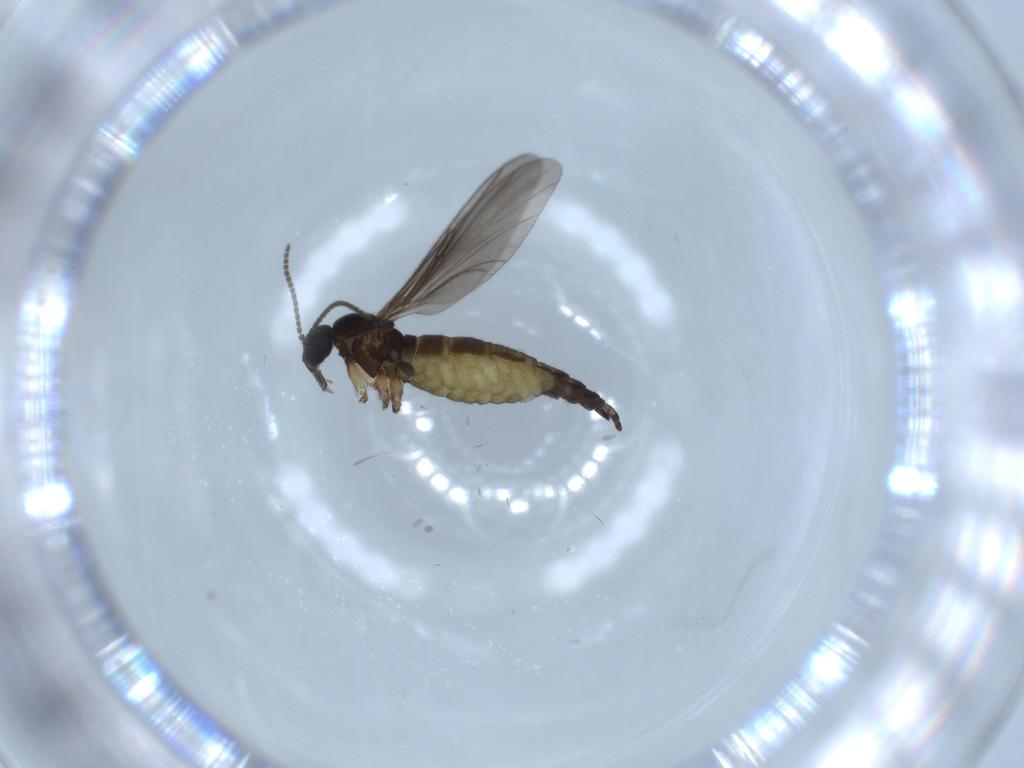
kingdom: Animalia
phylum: Arthropoda
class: Insecta
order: Diptera
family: Sciaridae
